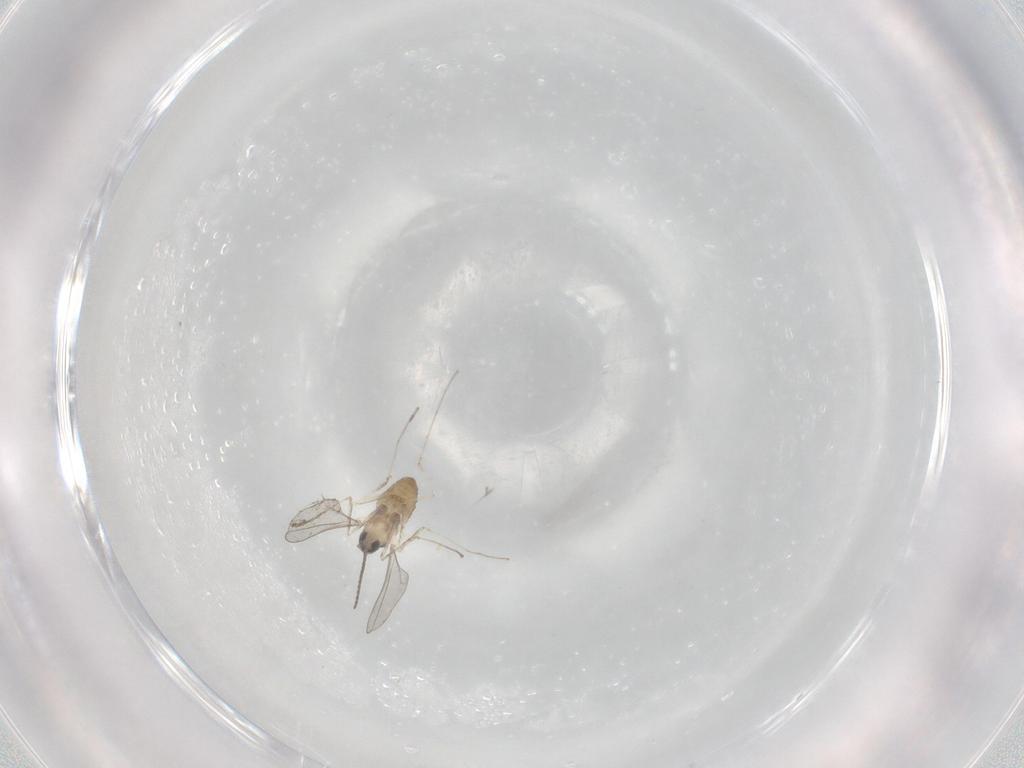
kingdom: Animalia
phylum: Arthropoda
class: Insecta
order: Diptera
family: Cecidomyiidae
